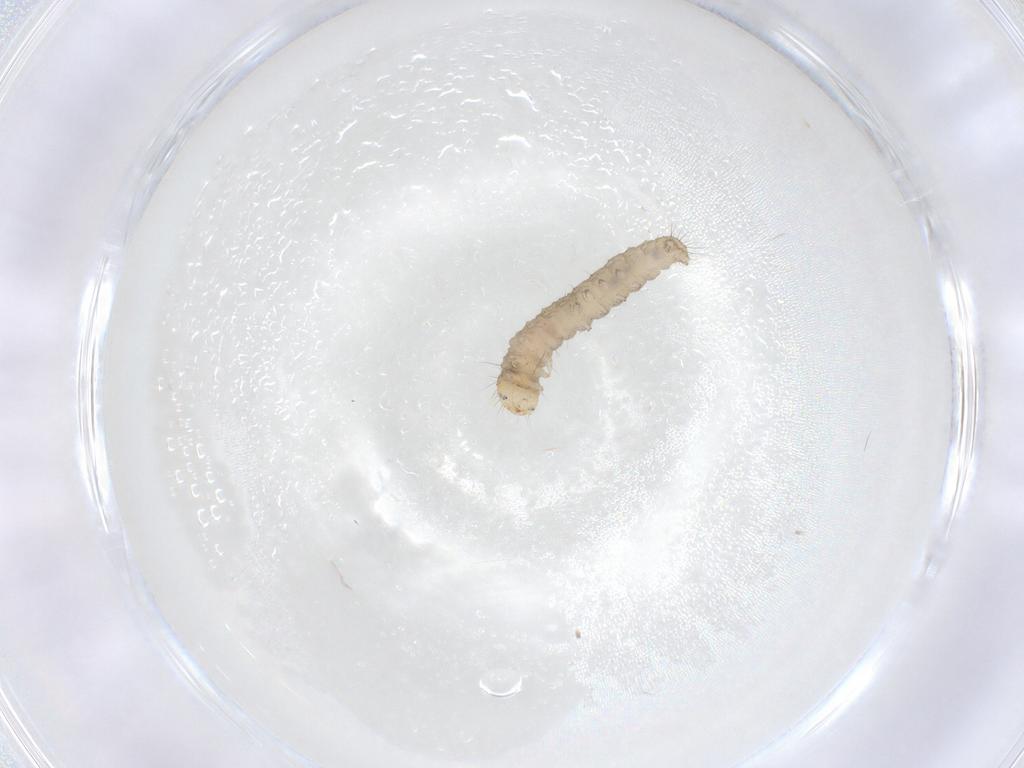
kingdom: Animalia
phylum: Arthropoda
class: Insecta
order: Lepidoptera
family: Gelechiidae
